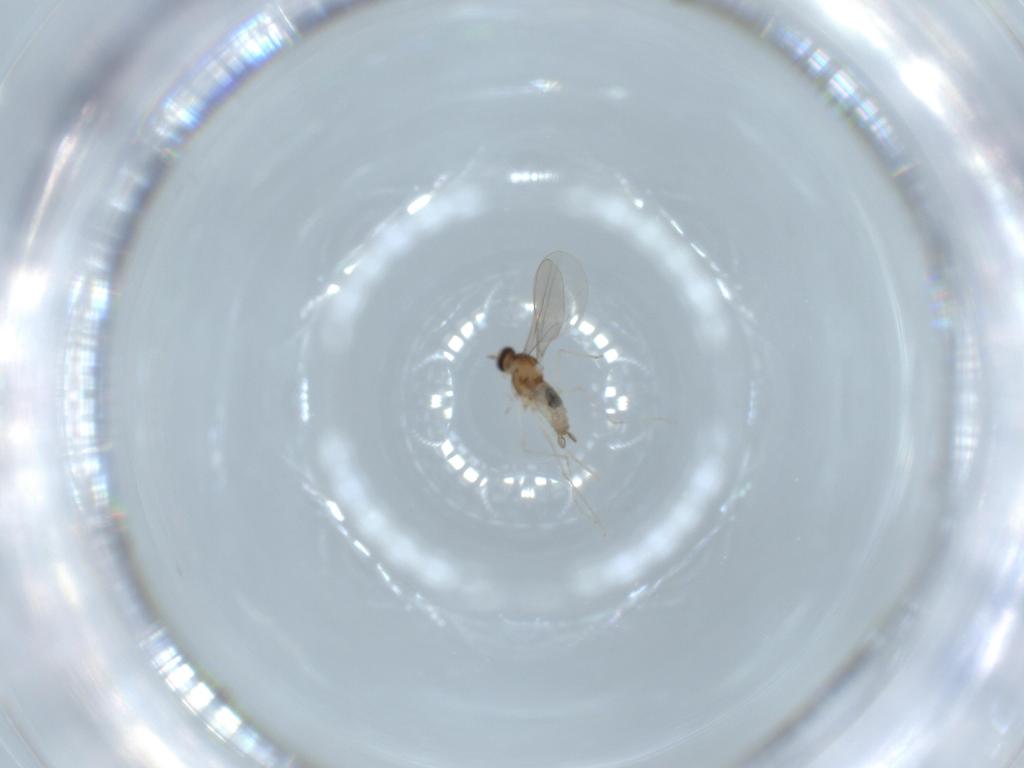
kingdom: Animalia
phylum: Arthropoda
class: Insecta
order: Diptera
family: Cecidomyiidae
